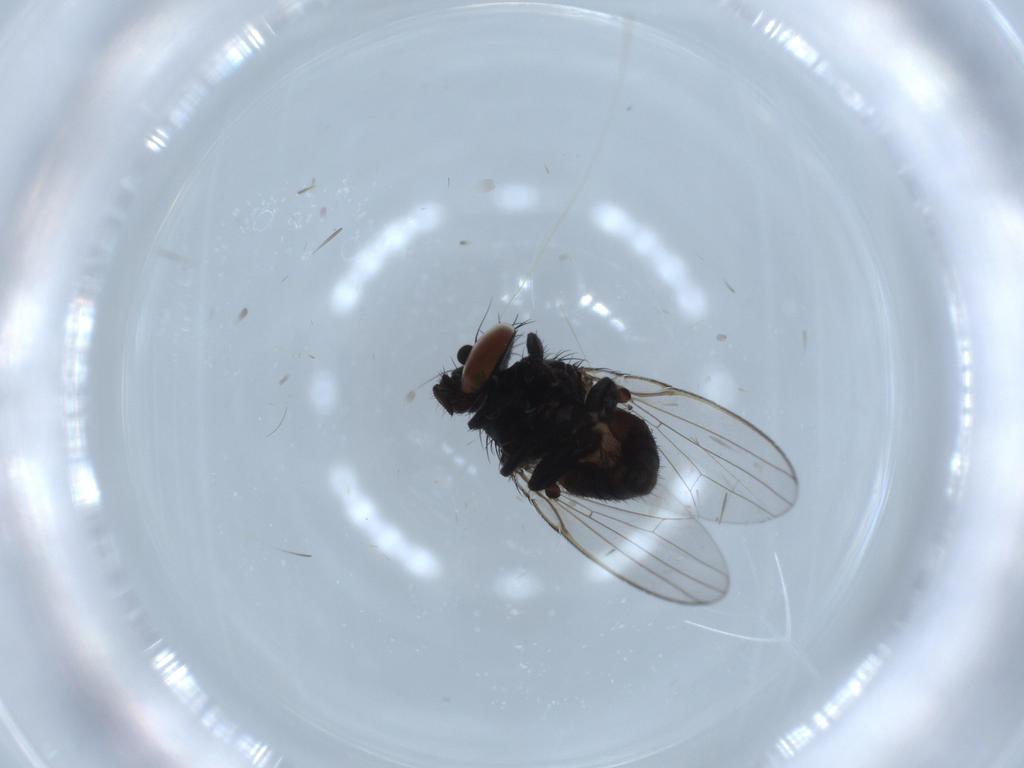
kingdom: Animalia
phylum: Arthropoda
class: Insecta
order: Diptera
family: Milichiidae
